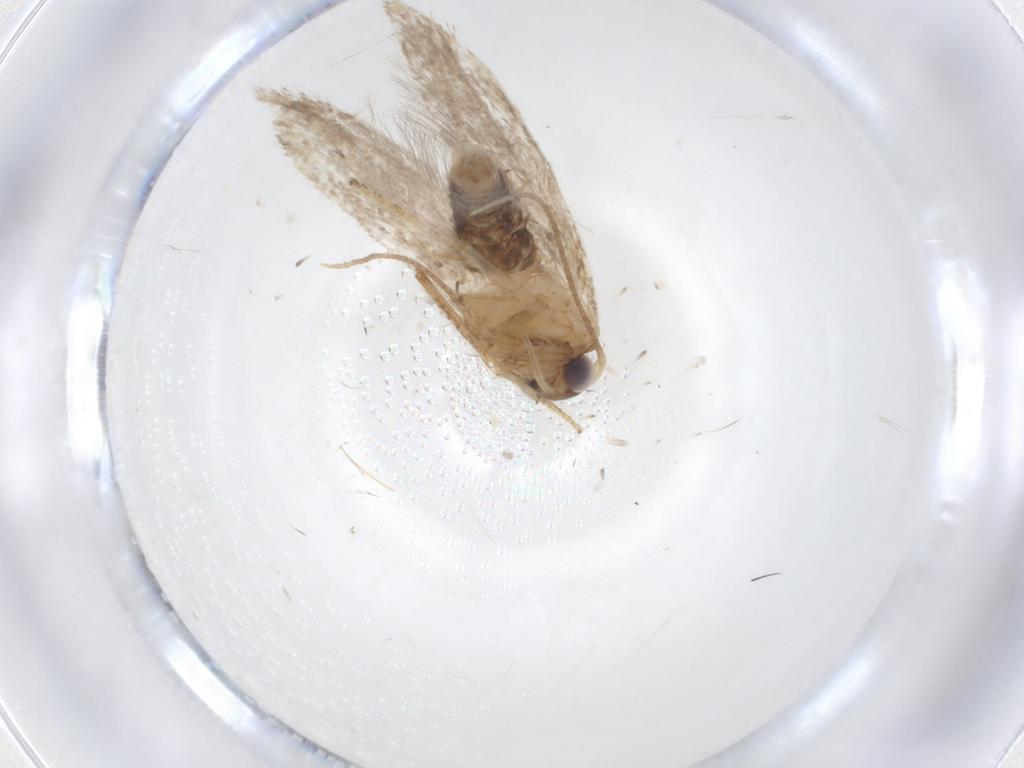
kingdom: Animalia
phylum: Arthropoda
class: Insecta
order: Lepidoptera
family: Blastobasidae
